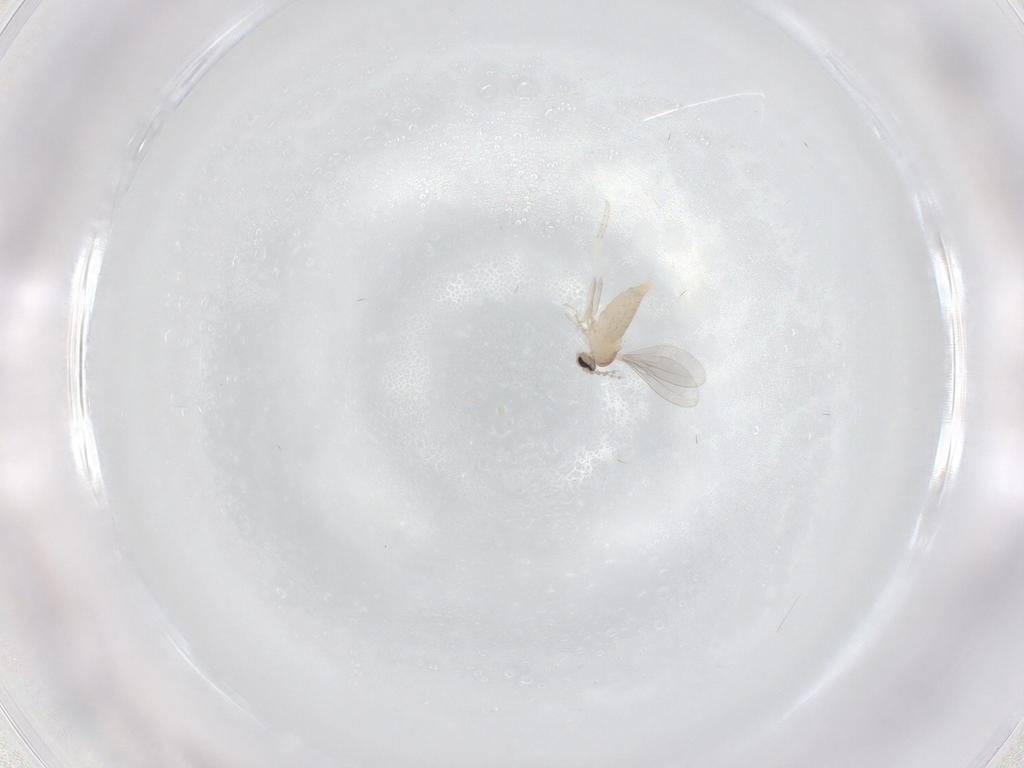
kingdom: Animalia
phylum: Arthropoda
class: Insecta
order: Diptera
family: Cecidomyiidae
